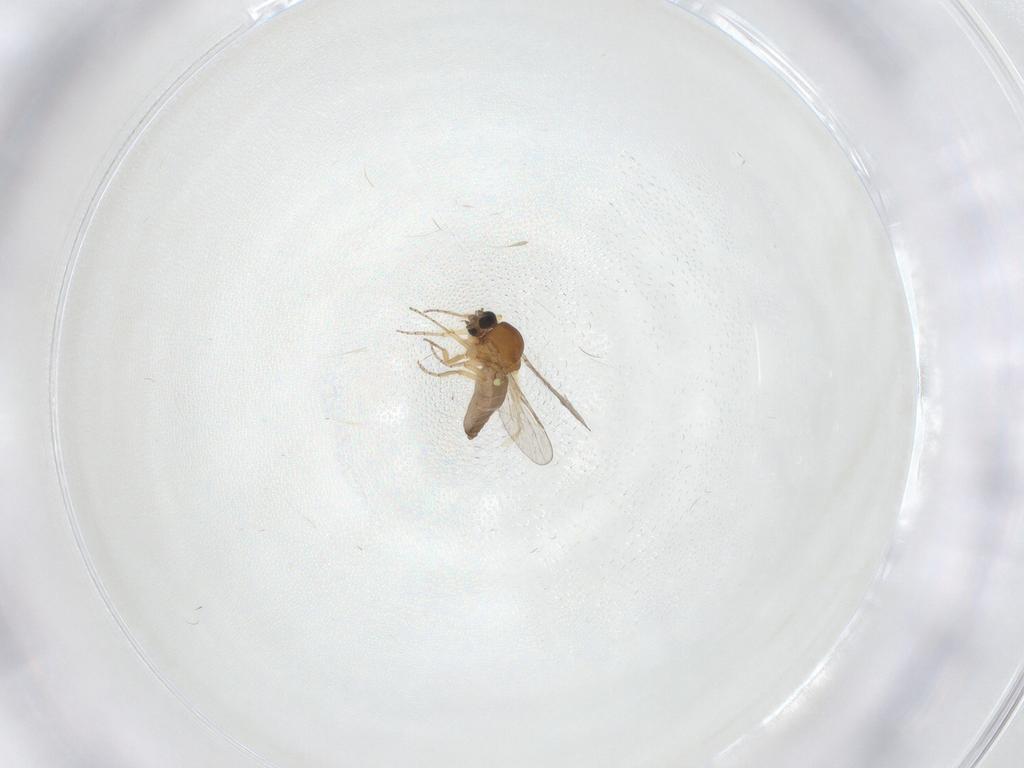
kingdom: Animalia
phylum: Arthropoda
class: Insecta
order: Diptera
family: Ceratopogonidae
